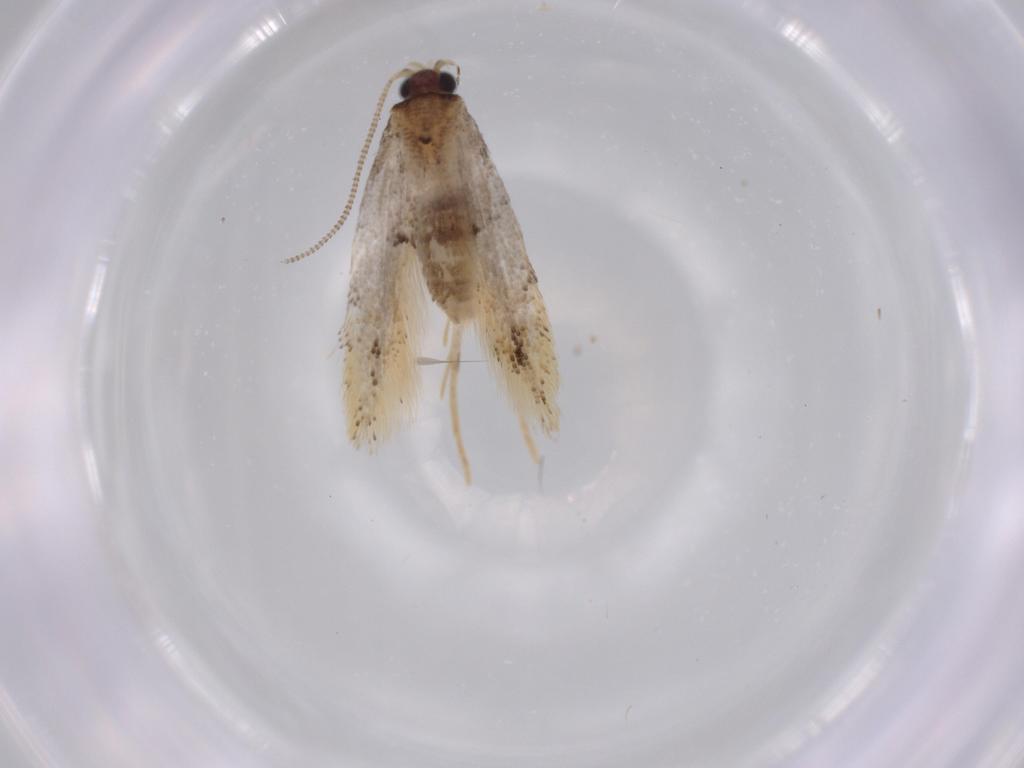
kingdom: Animalia
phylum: Arthropoda
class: Insecta
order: Lepidoptera
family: Tineidae
